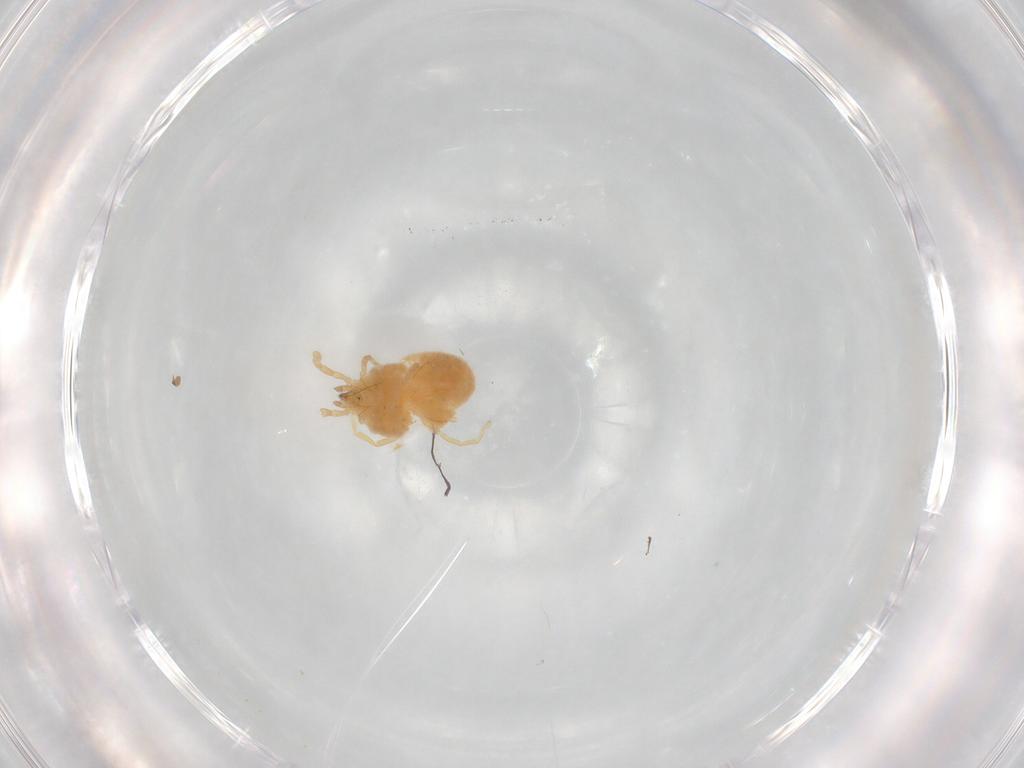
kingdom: Animalia
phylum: Arthropoda
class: Arachnida
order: Trombidiformes
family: Erythraeidae
